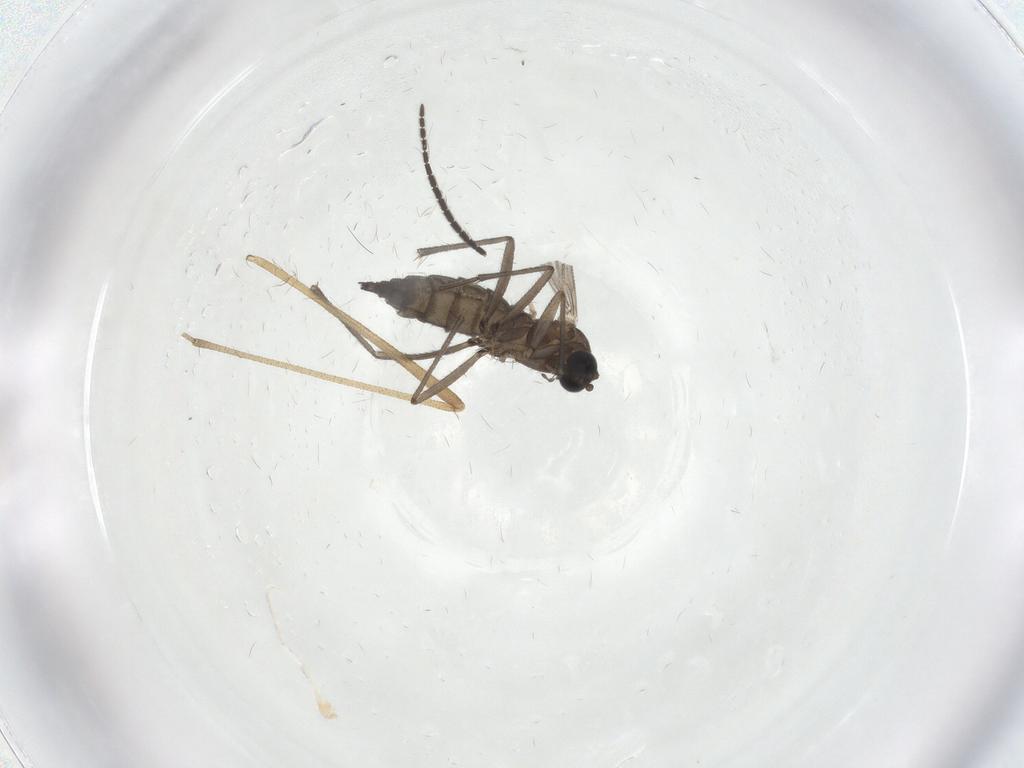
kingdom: Animalia
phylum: Arthropoda
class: Insecta
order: Diptera
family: Sciaridae
